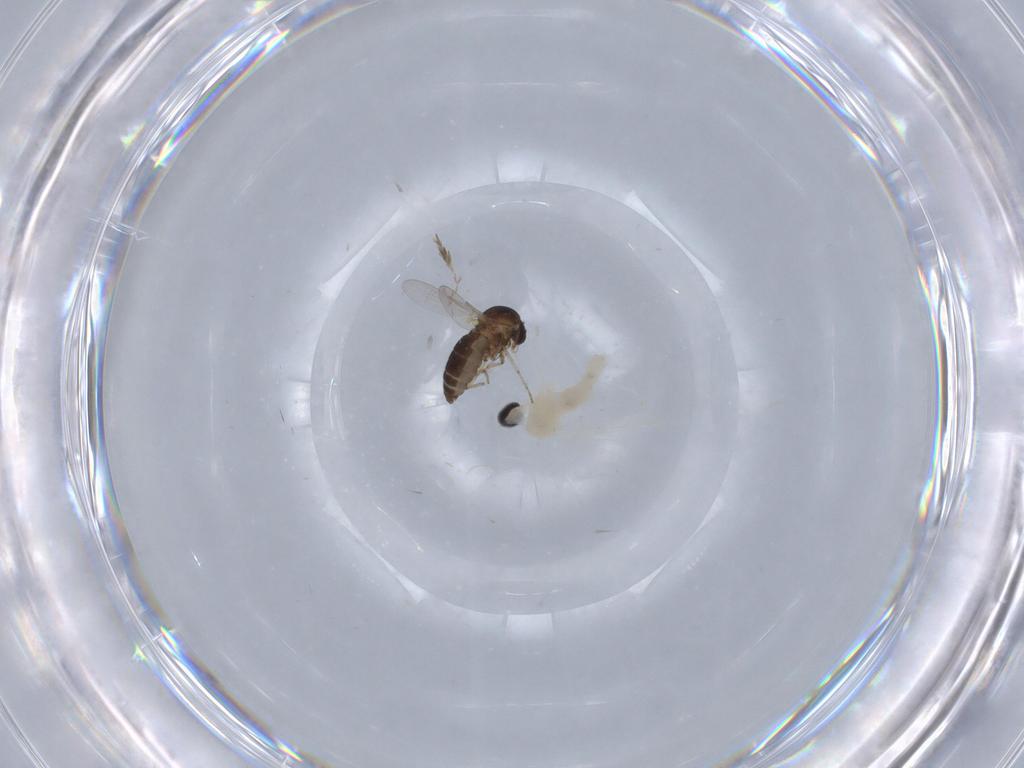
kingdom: Animalia
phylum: Arthropoda
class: Insecta
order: Diptera
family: Ceratopogonidae
